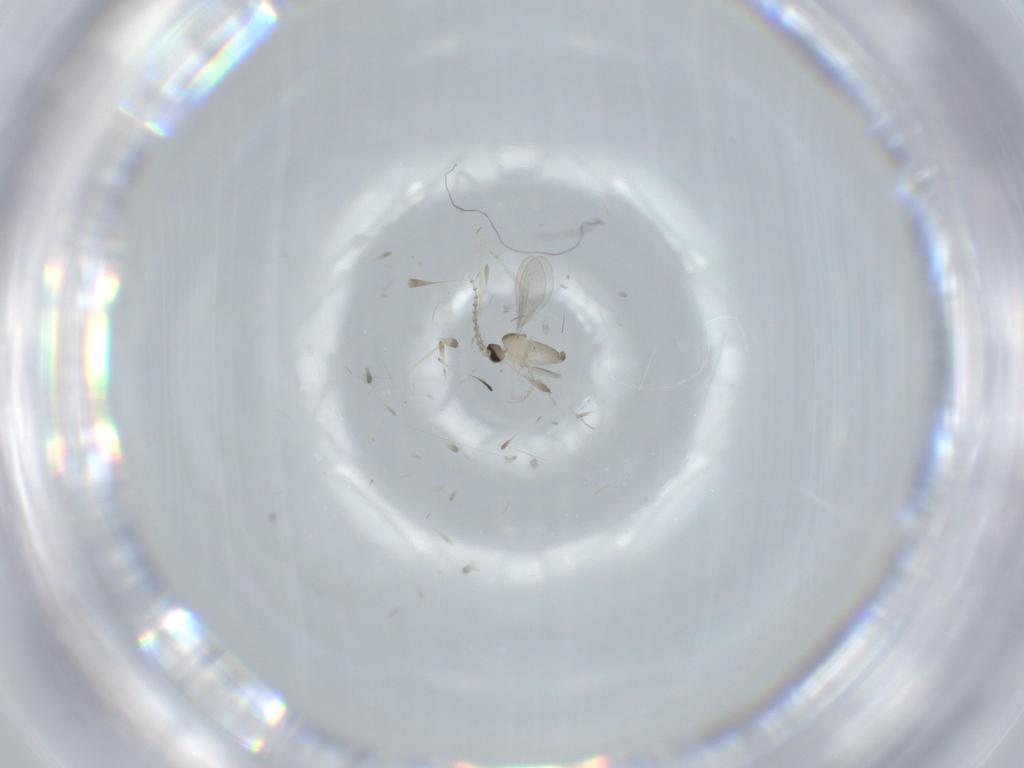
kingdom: Animalia
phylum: Arthropoda
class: Insecta
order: Diptera
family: Cecidomyiidae
